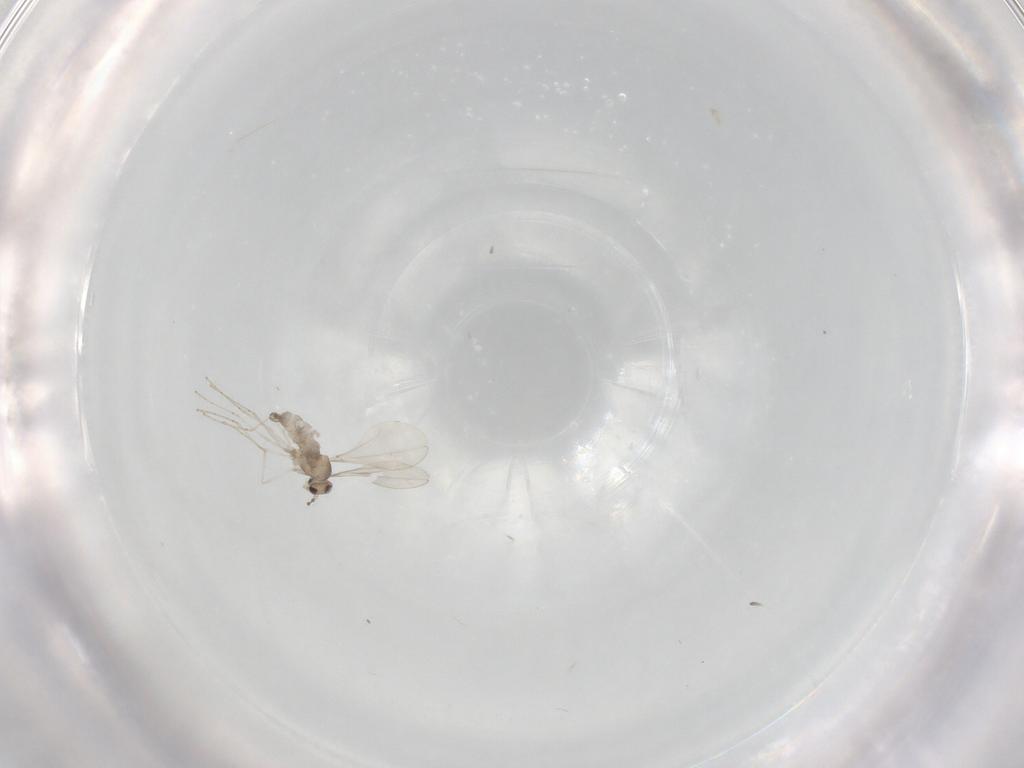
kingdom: Animalia
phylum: Arthropoda
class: Insecta
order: Diptera
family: Cecidomyiidae
